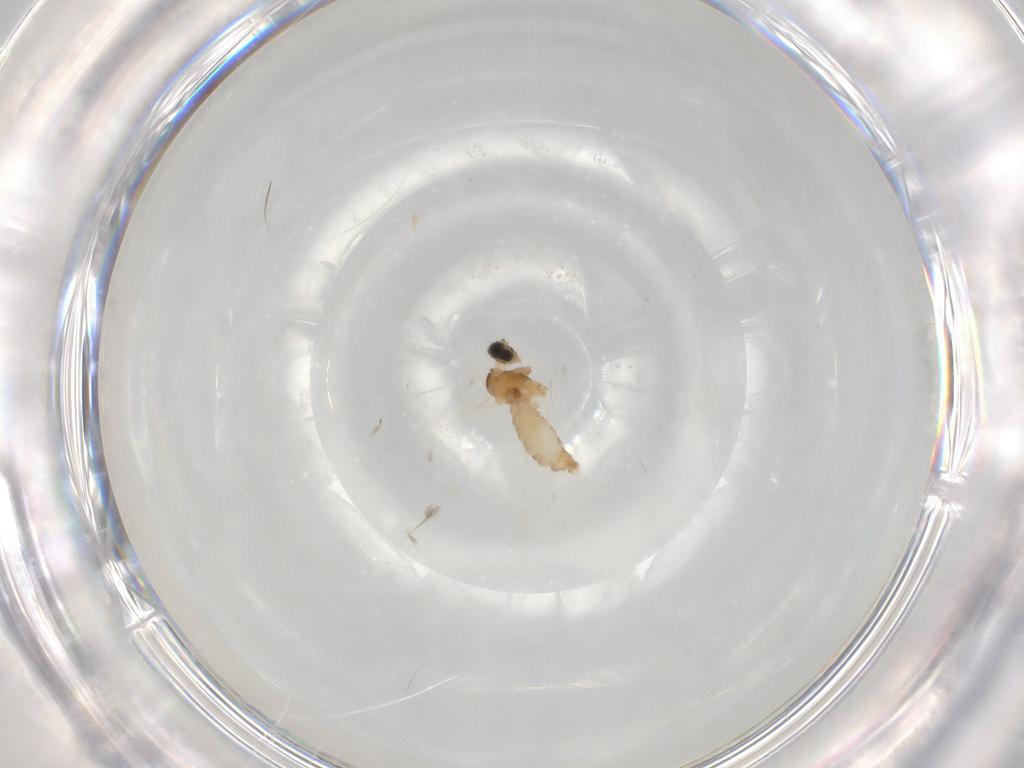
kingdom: Animalia
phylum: Arthropoda
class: Insecta
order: Diptera
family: Cecidomyiidae
